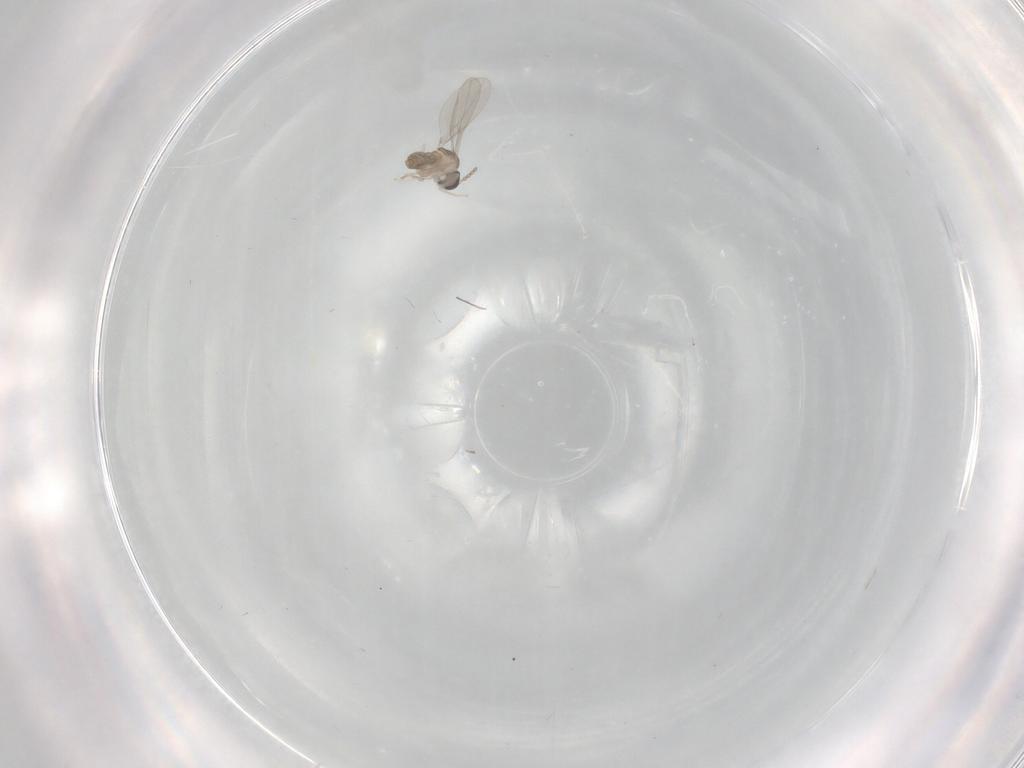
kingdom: Animalia
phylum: Arthropoda
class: Insecta
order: Diptera
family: Cecidomyiidae
